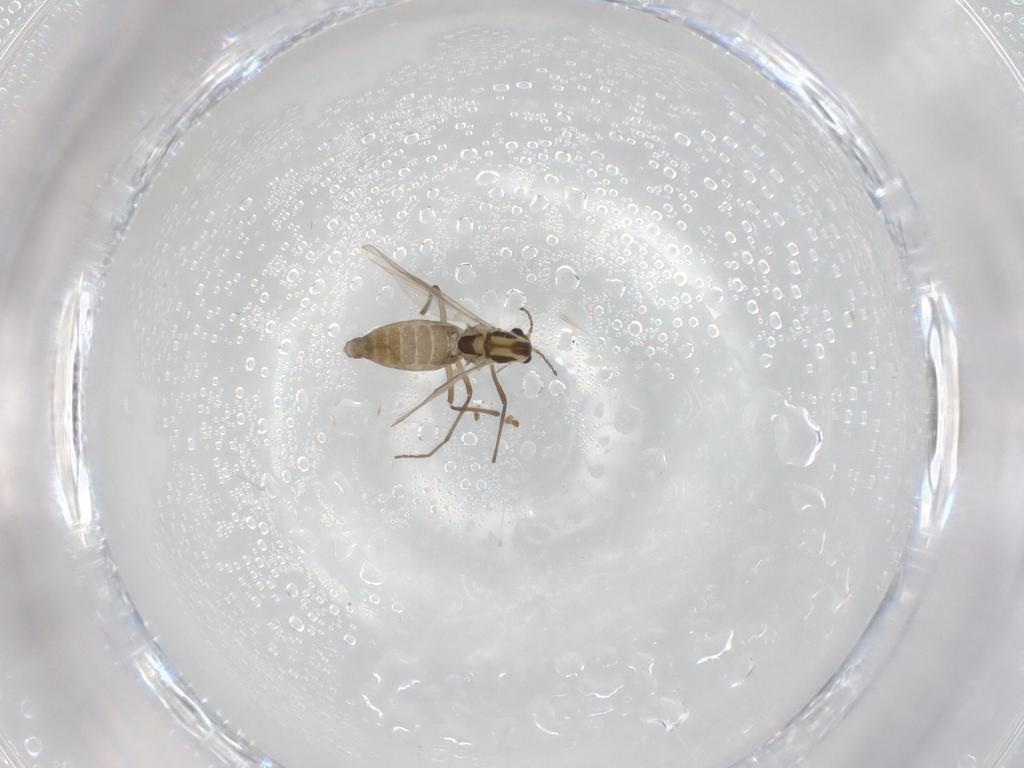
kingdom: Animalia
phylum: Arthropoda
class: Insecta
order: Diptera
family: Chironomidae
